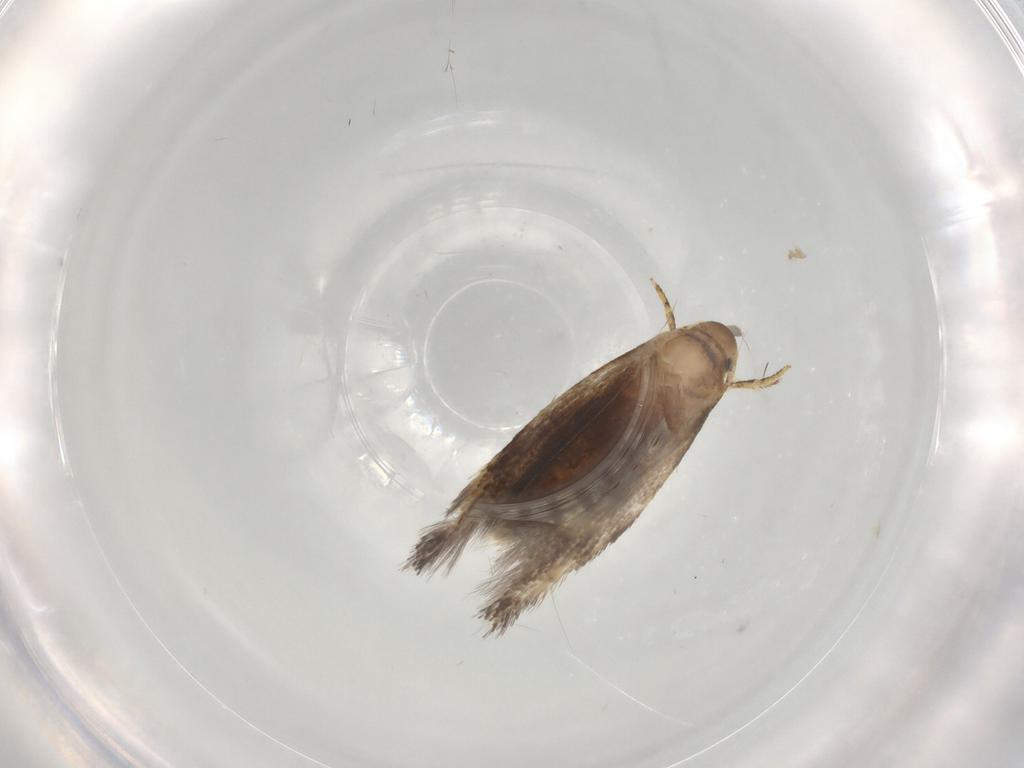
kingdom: Animalia
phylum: Arthropoda
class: Insecta
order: Lepidoptera
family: Elachistidae
